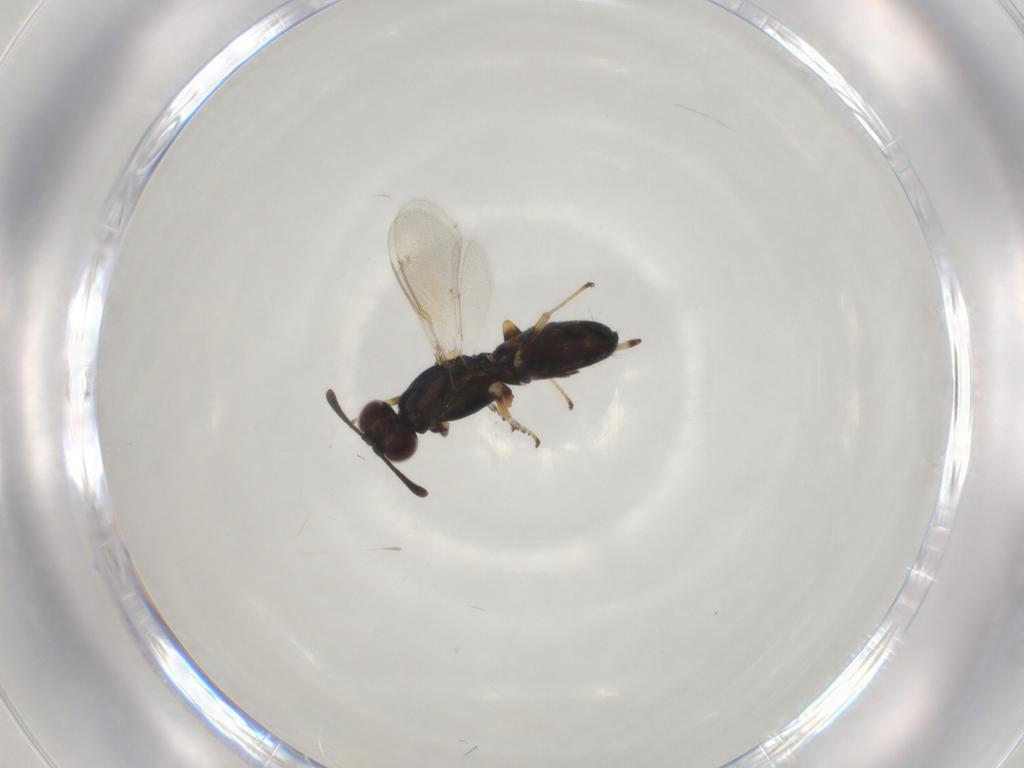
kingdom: Animalia
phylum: Arthropoda
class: Insecta
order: Hymenoptera
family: Eupelmidae
